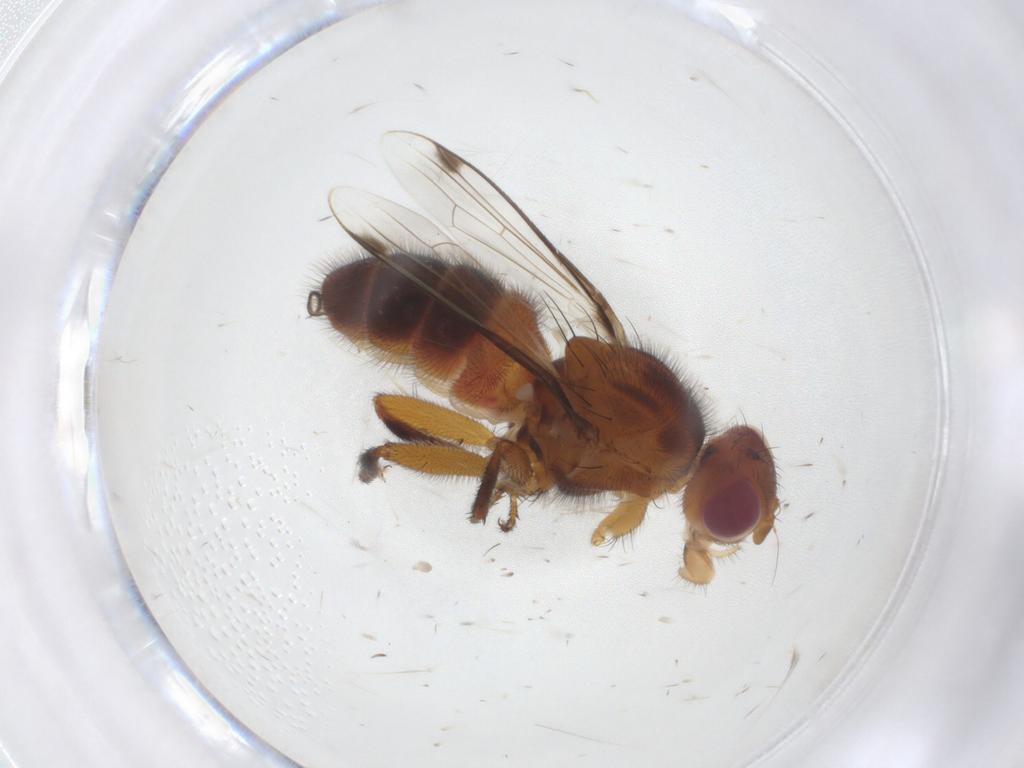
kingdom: Animalia
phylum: Arthropoda
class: Insecta
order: Diptera
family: Richardiidae
